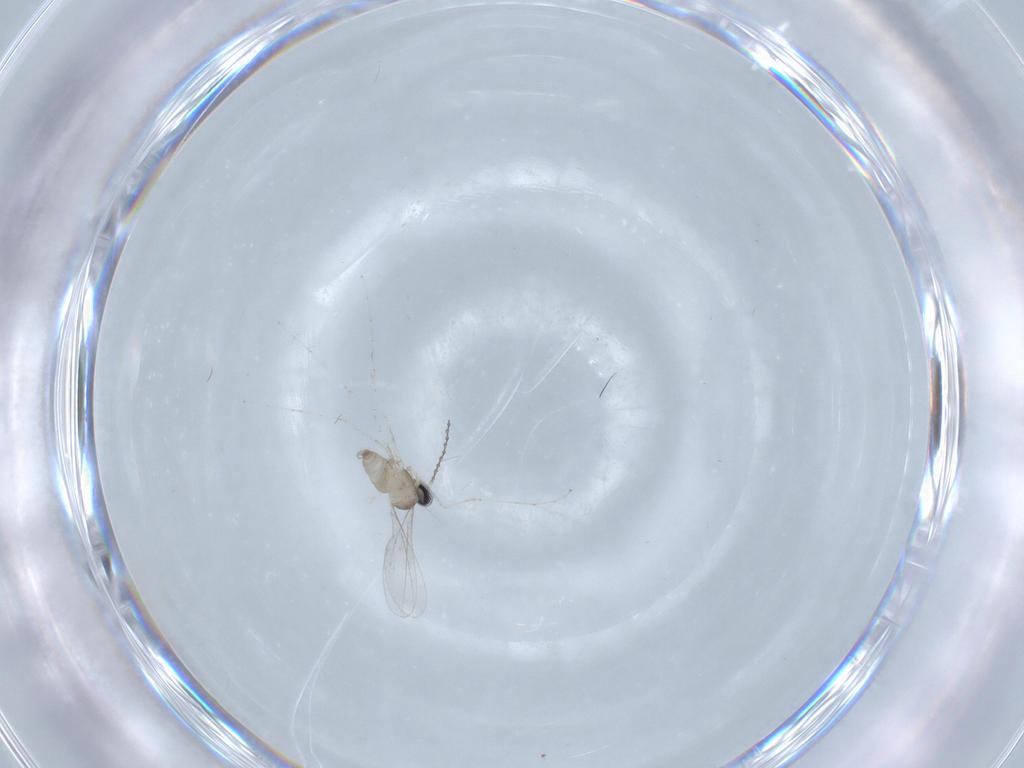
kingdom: Animalia
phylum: Arthropoda
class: Insecta
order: Diptera
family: Cecidomyiidae
